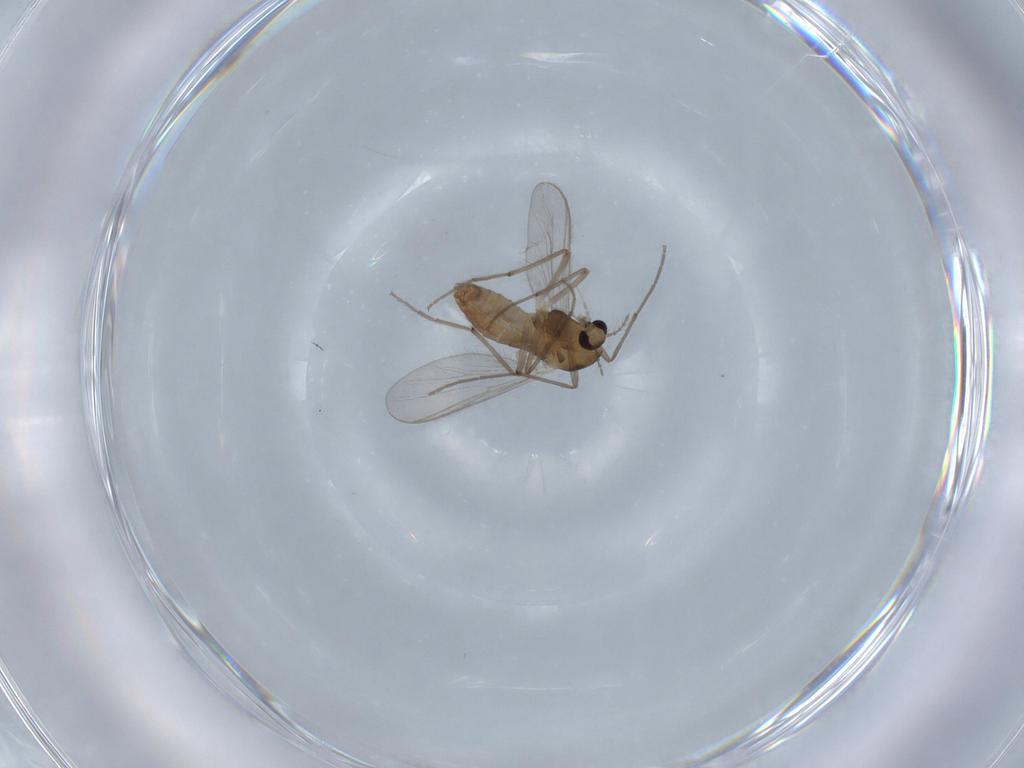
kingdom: Animalia
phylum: Arthropoda
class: Insecta
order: Diptera
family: Chironomidae
